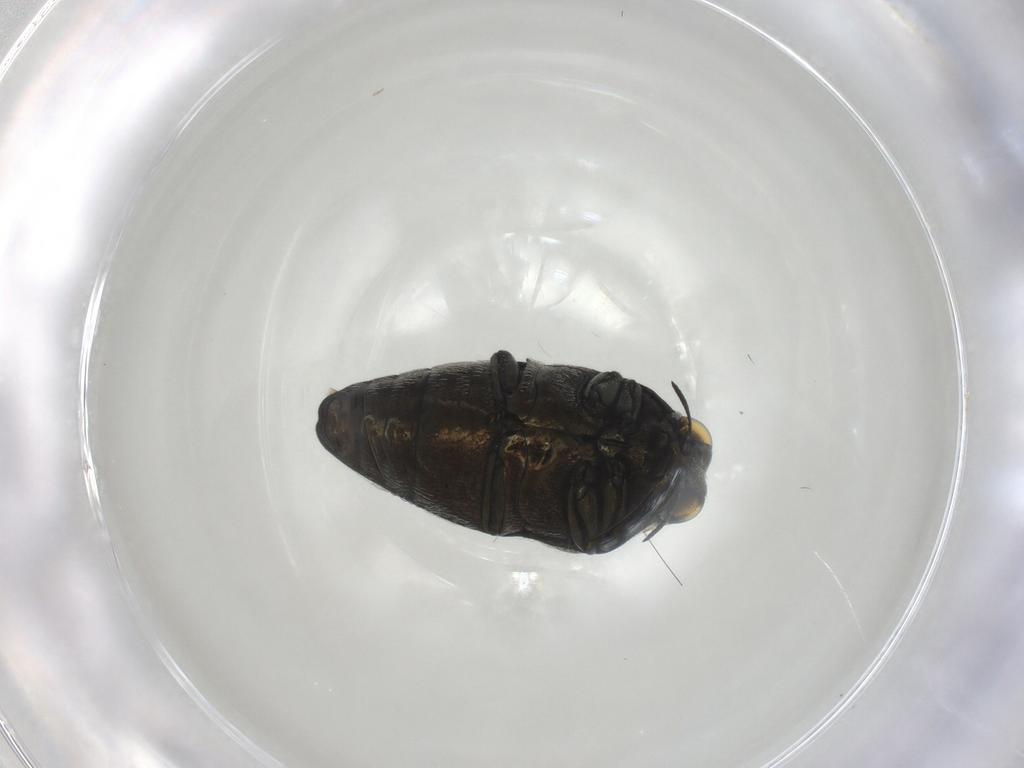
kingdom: Animalia
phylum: Arthropoda
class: Insecta
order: Coleoptera
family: Buprestidae
